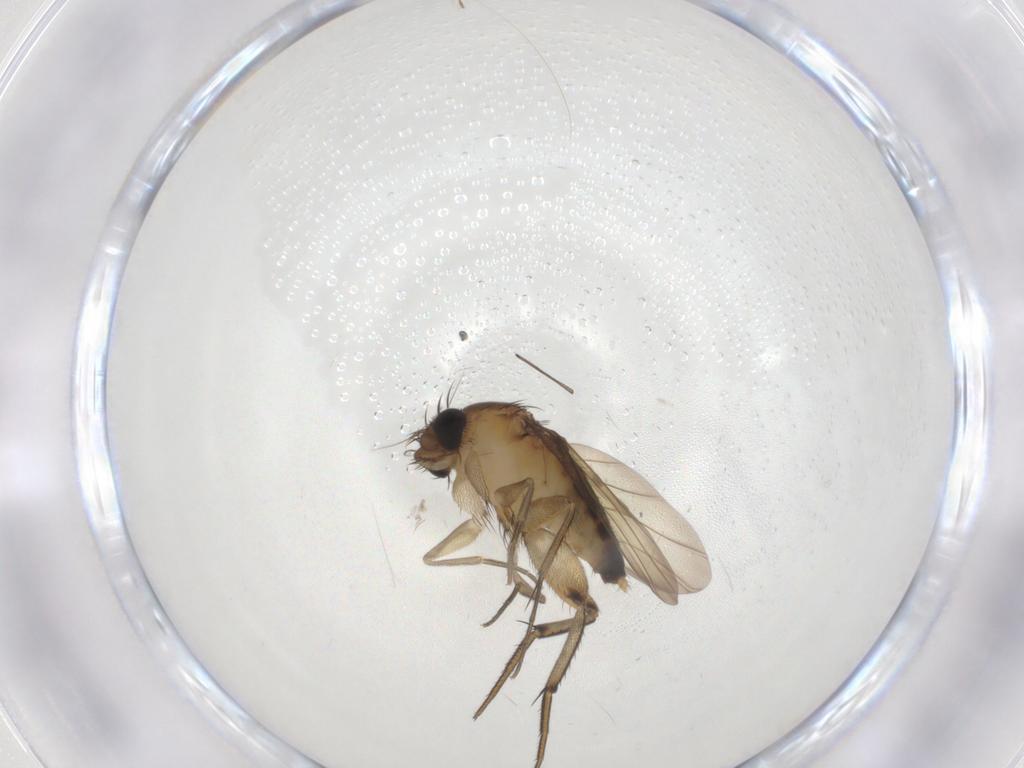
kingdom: Animalia
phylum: Arthropoda
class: Insecta
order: Diptera
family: Phoridae
